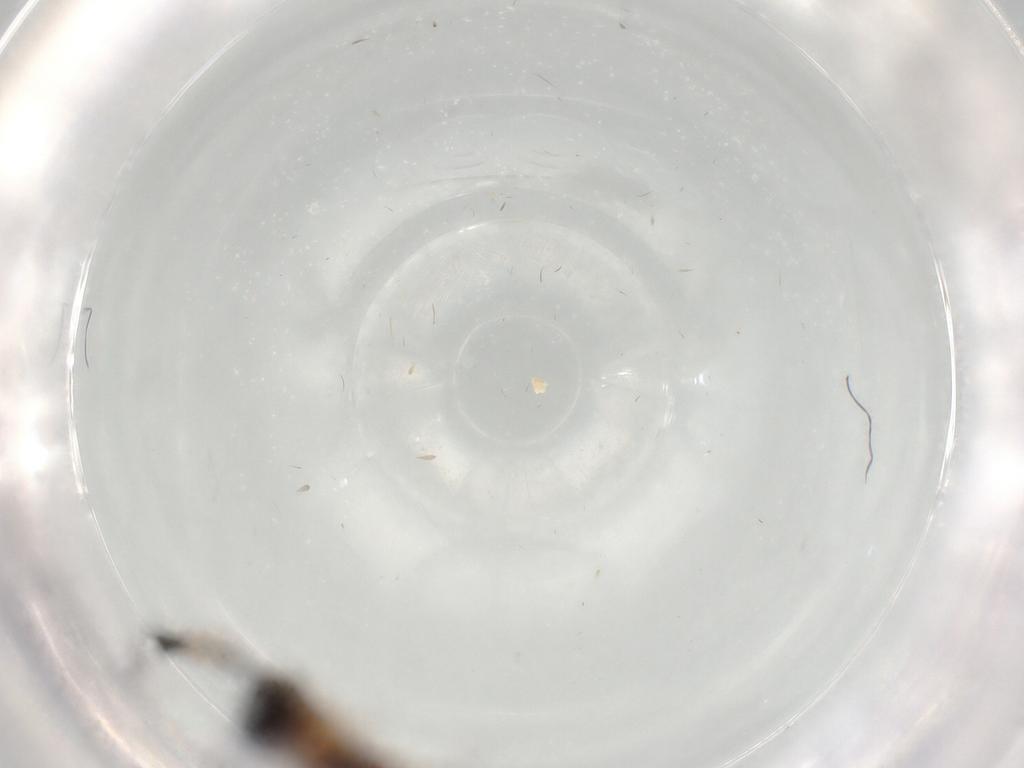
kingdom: Animalia
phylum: Arthropoda
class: Insecta
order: Hymenoptera
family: Figitidae
